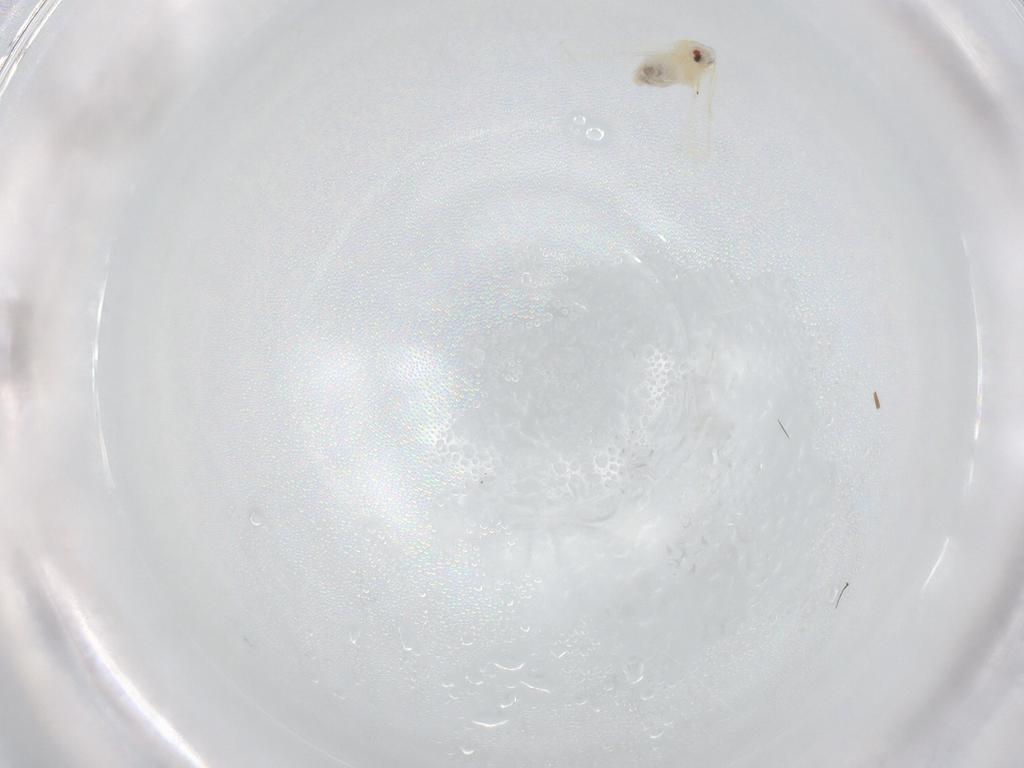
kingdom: Animalia
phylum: Arthropoda
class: Insecta
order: Hemiptera
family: Aleyrodidae
